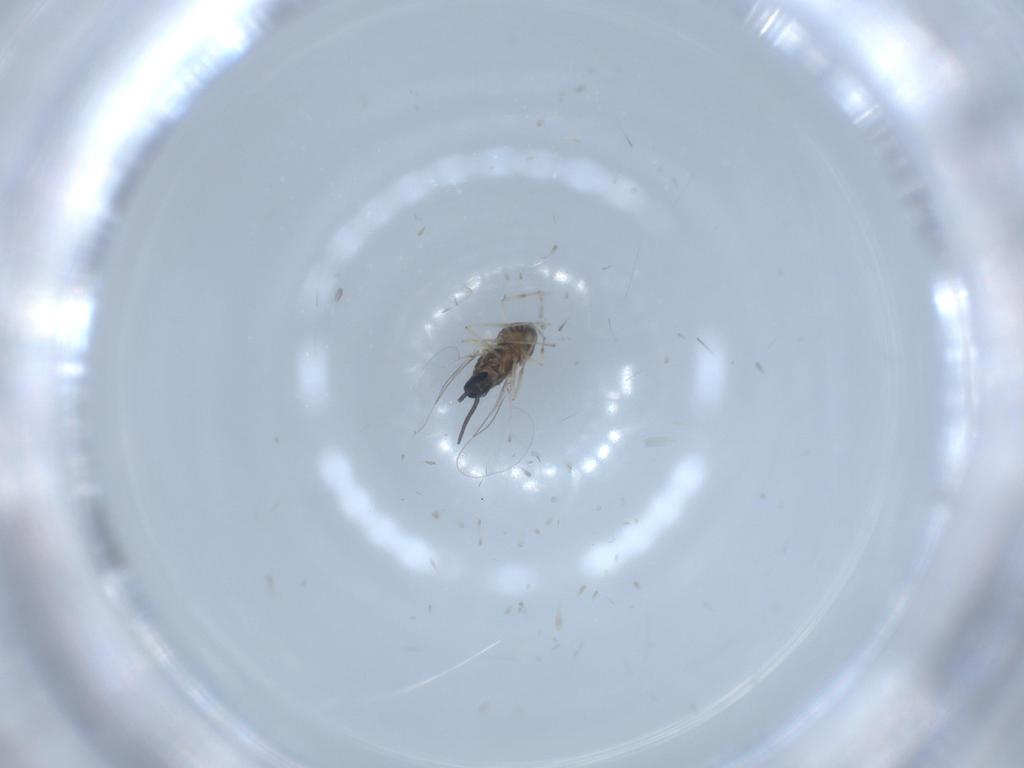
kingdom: Animalia
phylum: Arthropoda
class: Insecta
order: Diptera
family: Cecidomyiidae
